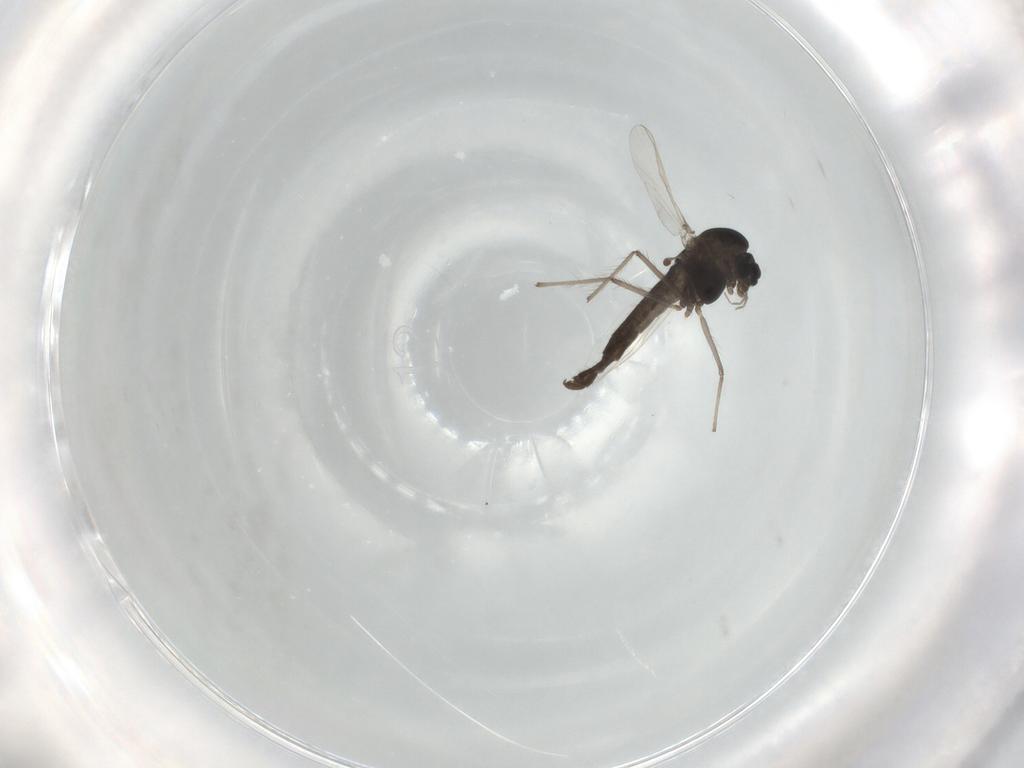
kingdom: Animalia
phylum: Arthropoda
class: Insecta
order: Diptera
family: Chironomidae
